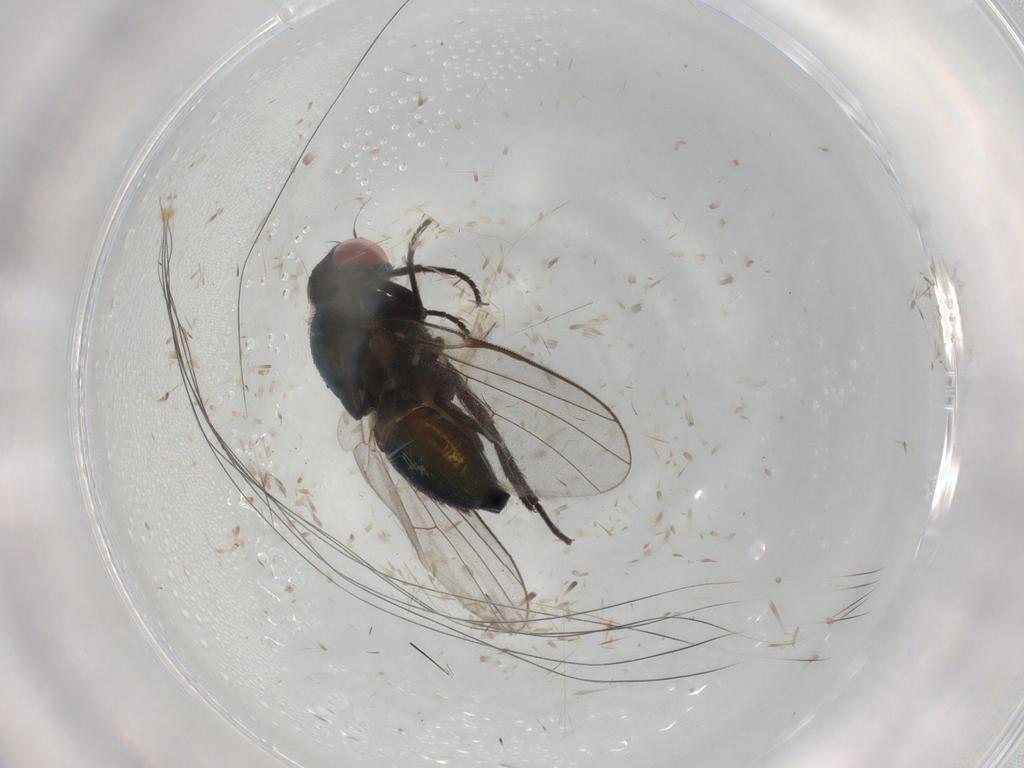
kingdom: Animalia
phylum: Arthropoda
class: Insecta
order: Diptera
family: Agromyzidae
